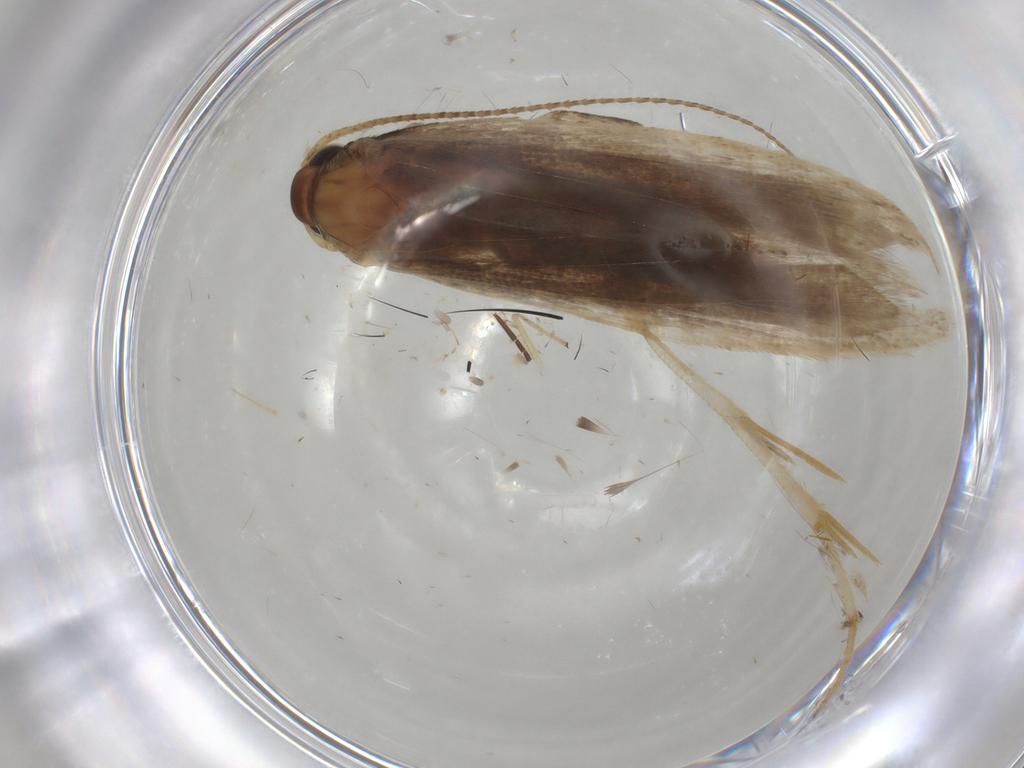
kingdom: Animalia
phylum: Arthropoda
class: Insecta
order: Lepidoptera
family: Gelechiidae
